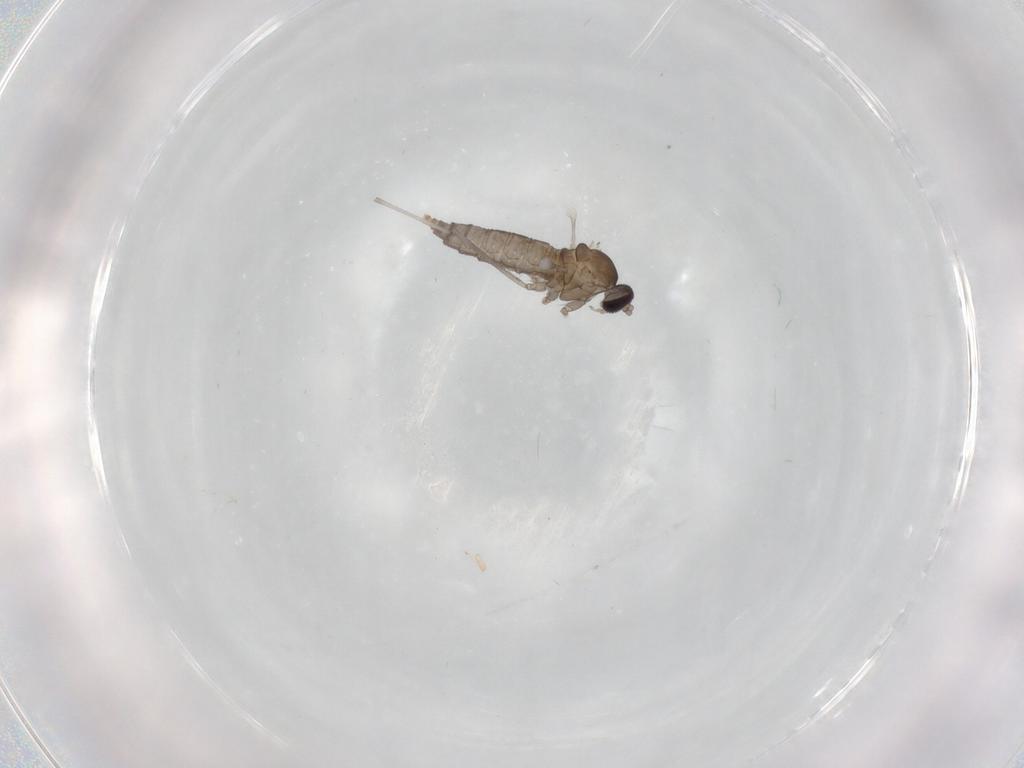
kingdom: Animalia
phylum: Arthropoda
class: Insecta
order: Diptera
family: Cecidomyiidae
